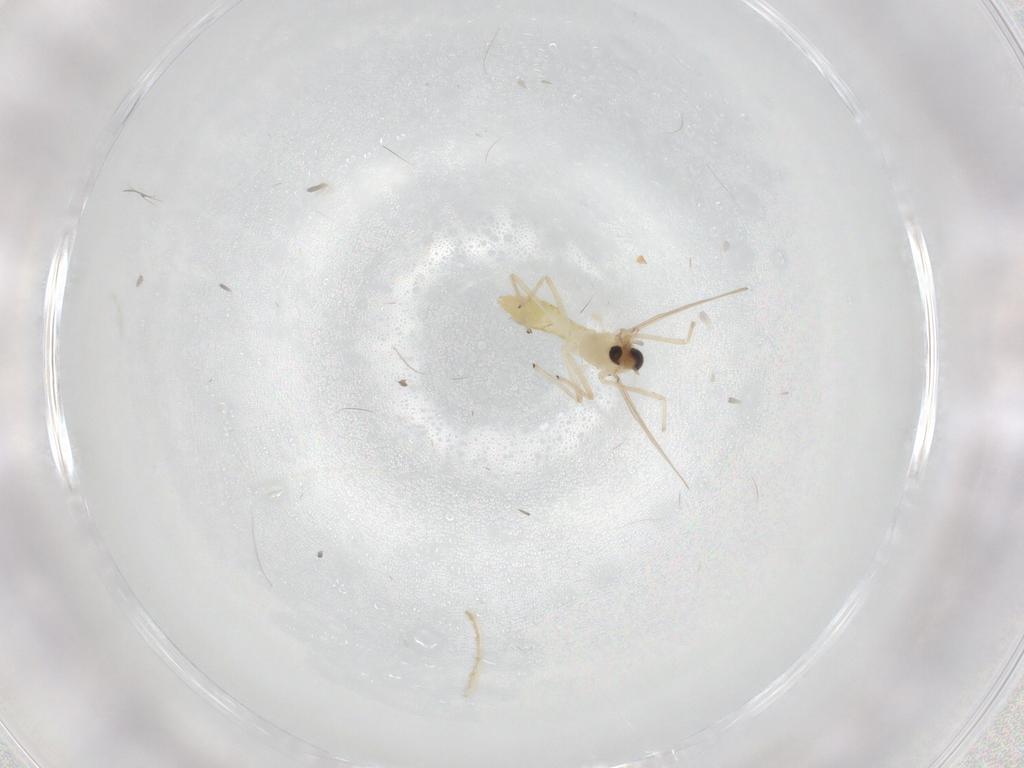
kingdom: Animalia
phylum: Arthropoda
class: Insecta
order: Diptera
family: Chironomidae
